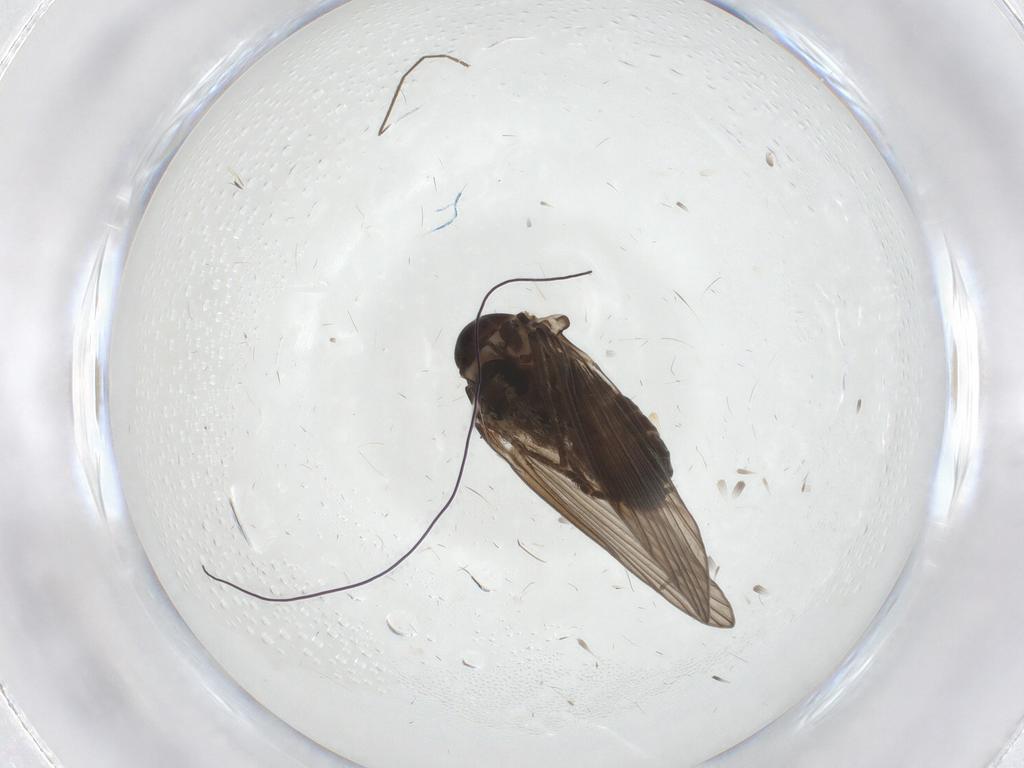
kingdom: Animalia
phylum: Arthropoda
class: Insecta
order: Diptera
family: Psychodidae
